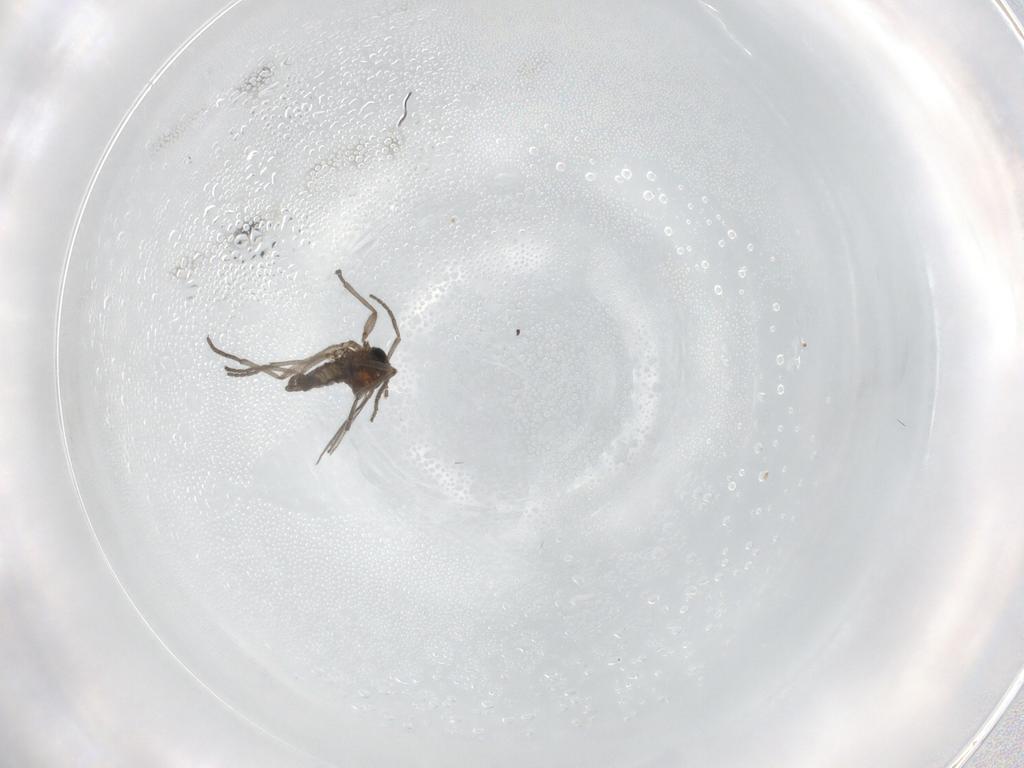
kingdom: Animalia
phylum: Arthropoda
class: Insecta
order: Diptera
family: Sciaridae
